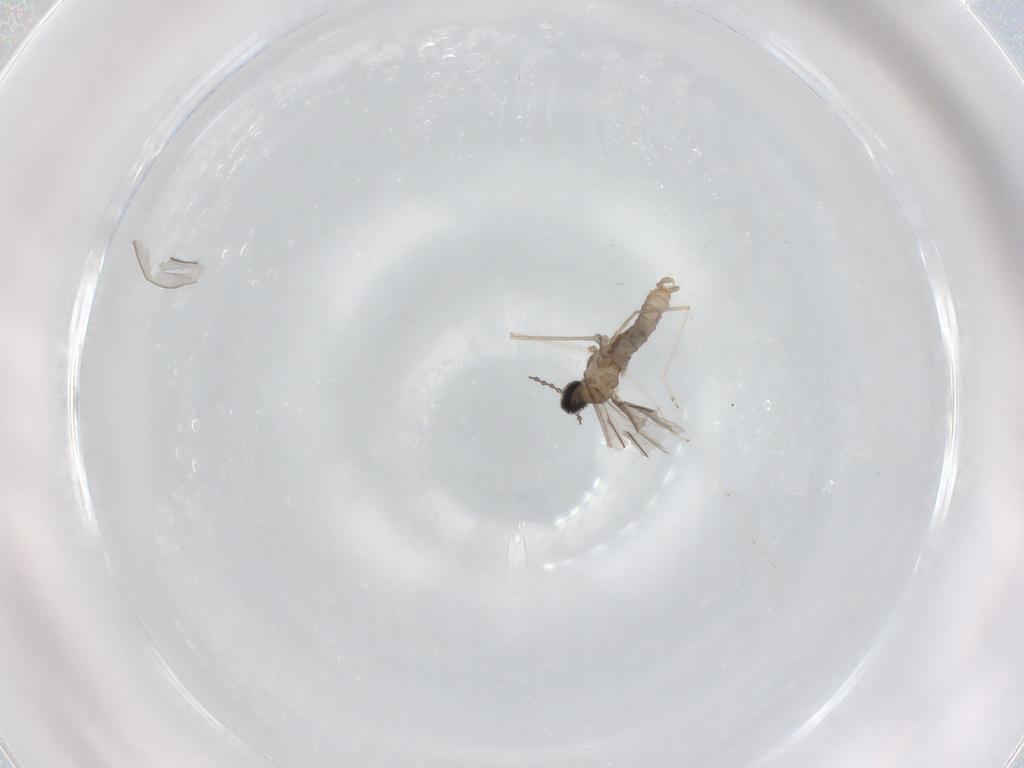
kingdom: Animalia
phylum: Arthropoda
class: Insecta
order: Diptera
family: Cecidomyiidae
